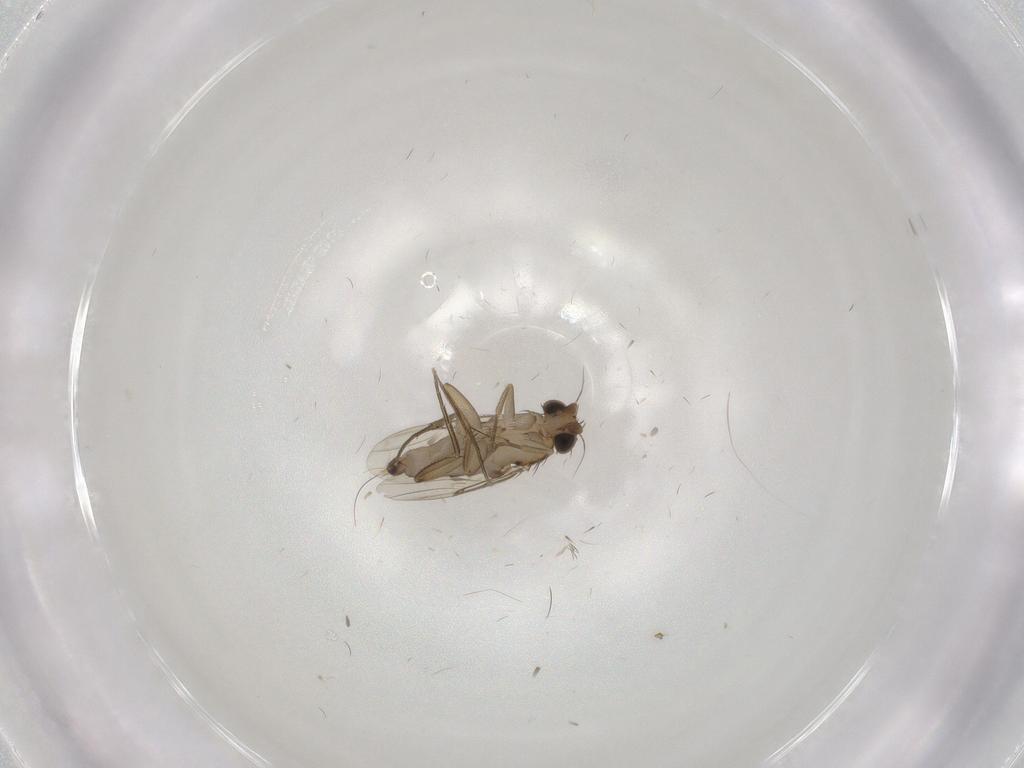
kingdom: Animalia
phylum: Arthropoda
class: Insecta
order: Diptera
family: Phoridae
